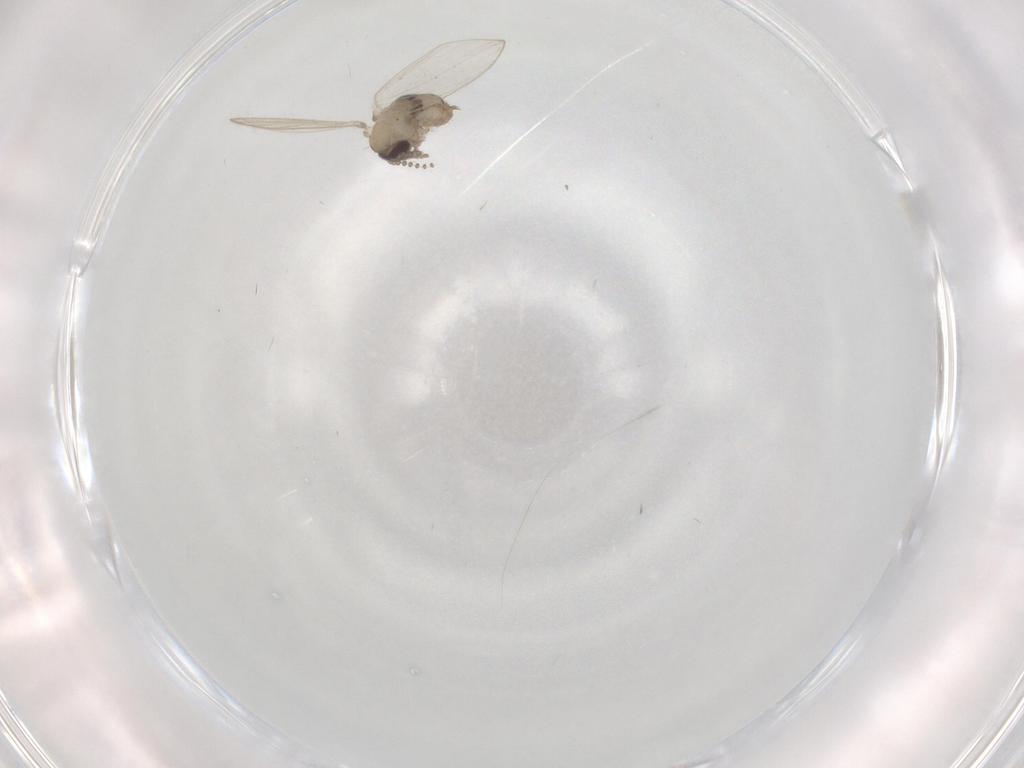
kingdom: Animalia
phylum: Arthropoda
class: Insecta
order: Diptera
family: Psychodidae
